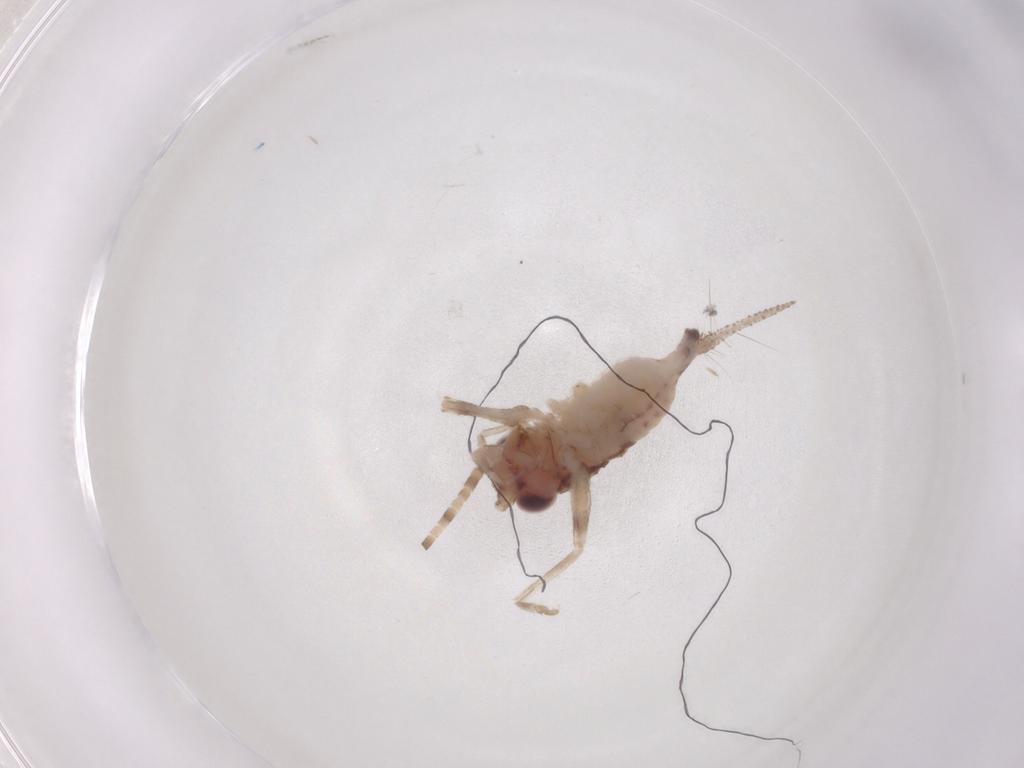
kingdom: Animalia
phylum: Arthropoda
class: Insecta
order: Orthoptera
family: Trigonidiidae
